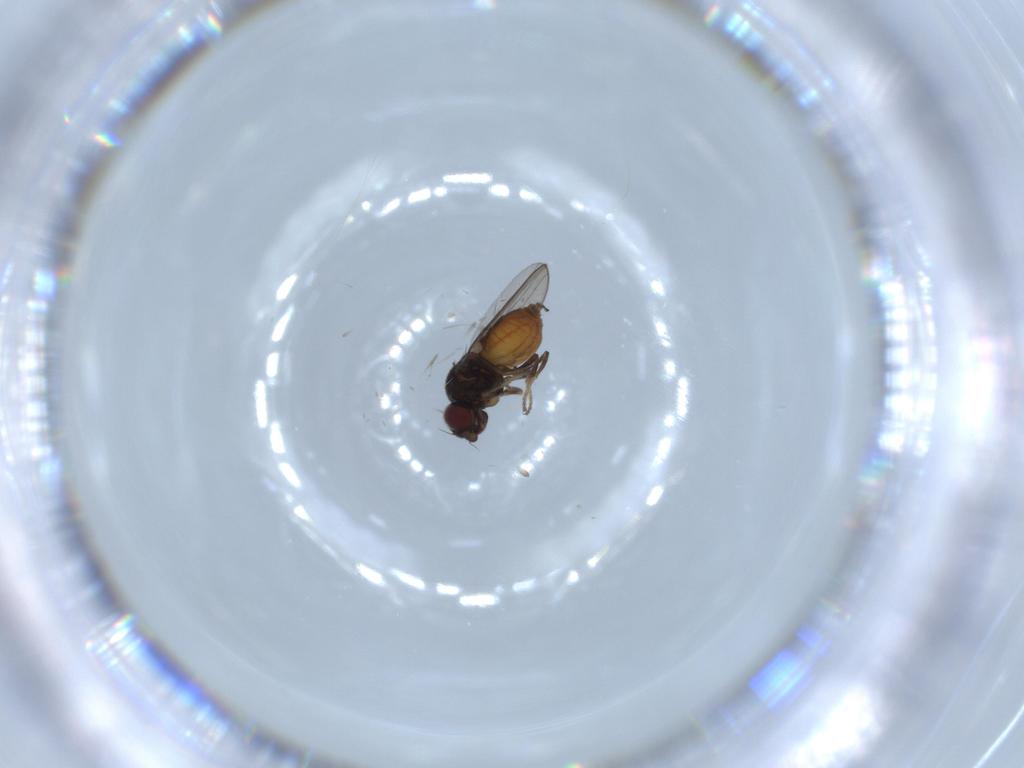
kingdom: Animalia
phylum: Arthropoda
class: Insecta
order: Diptera
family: Chloropidae
